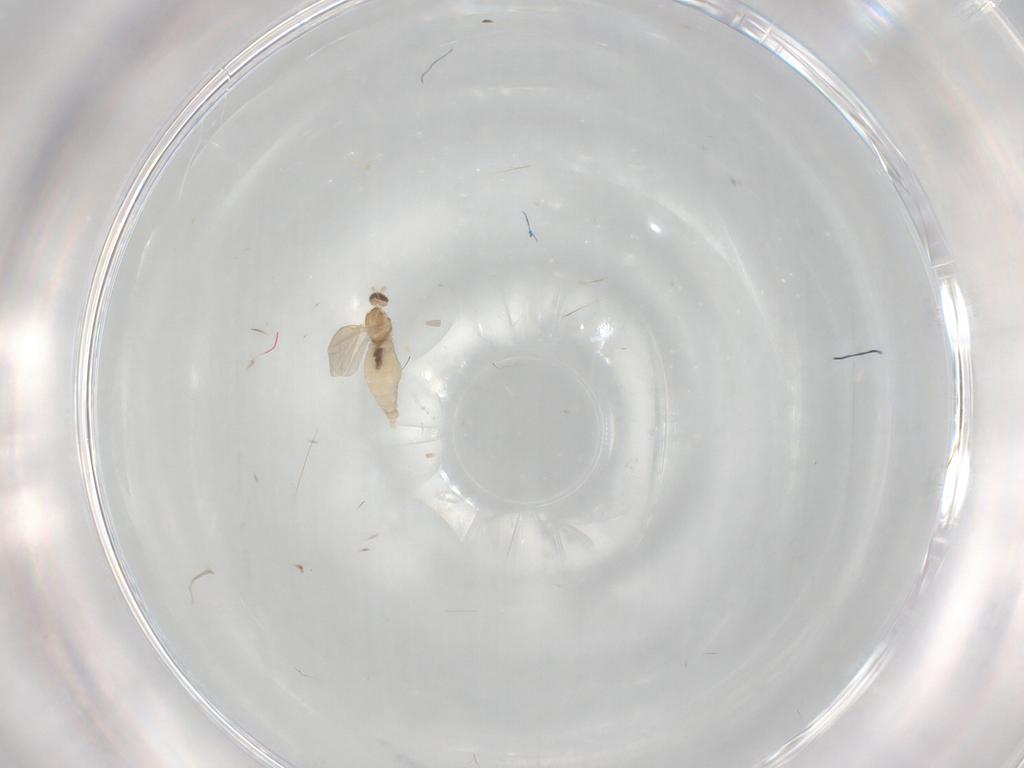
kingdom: Animalia
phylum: Arthropoda
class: Insecta
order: Diptera
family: Cecidomyiidae
